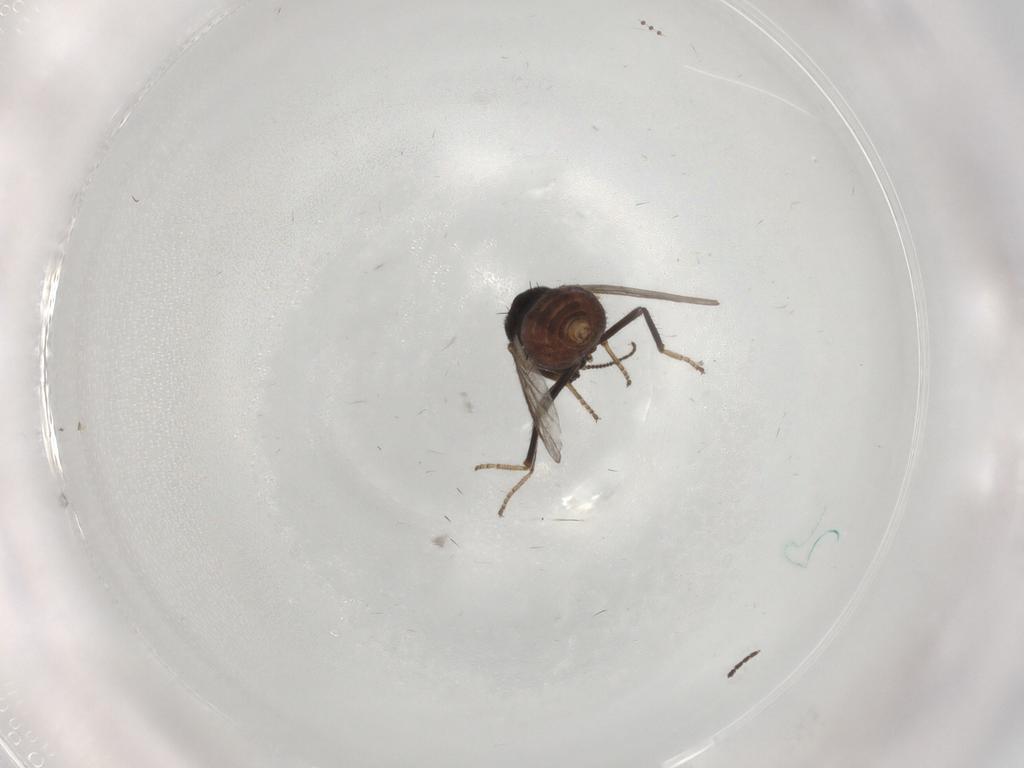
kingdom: Animalia
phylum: Arthropoda
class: Insecta
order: Diptera
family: Ceratopogonidae
